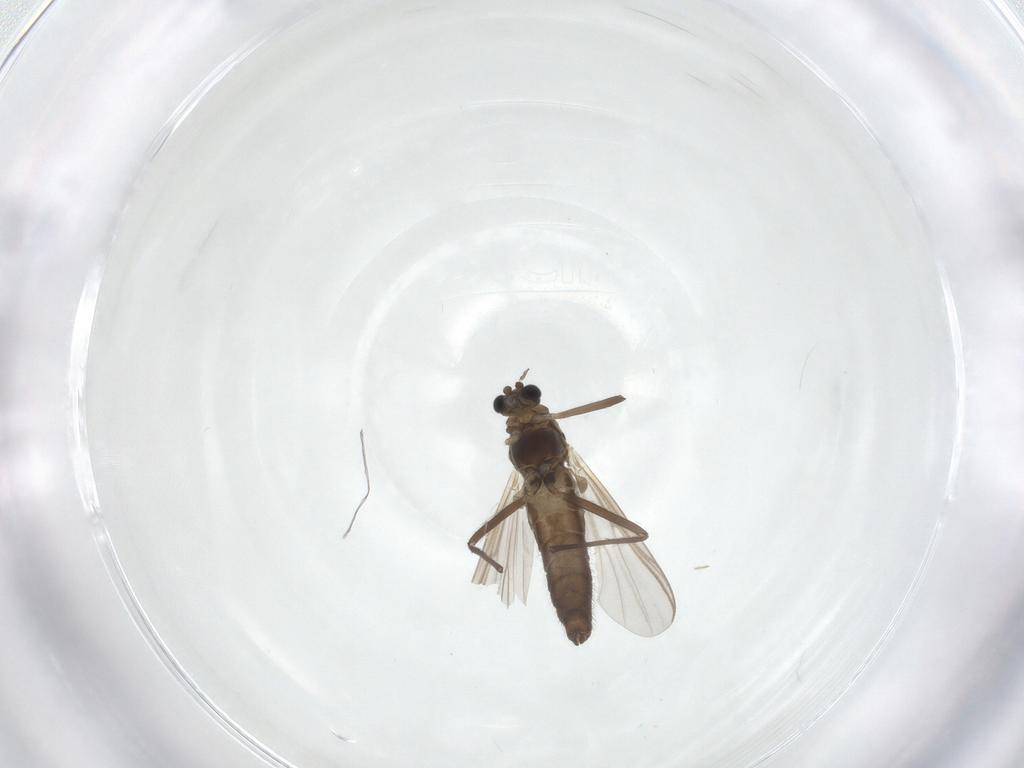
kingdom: Animalia
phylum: Arthropoda
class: Insecta
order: Diptera
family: Chironomidae
